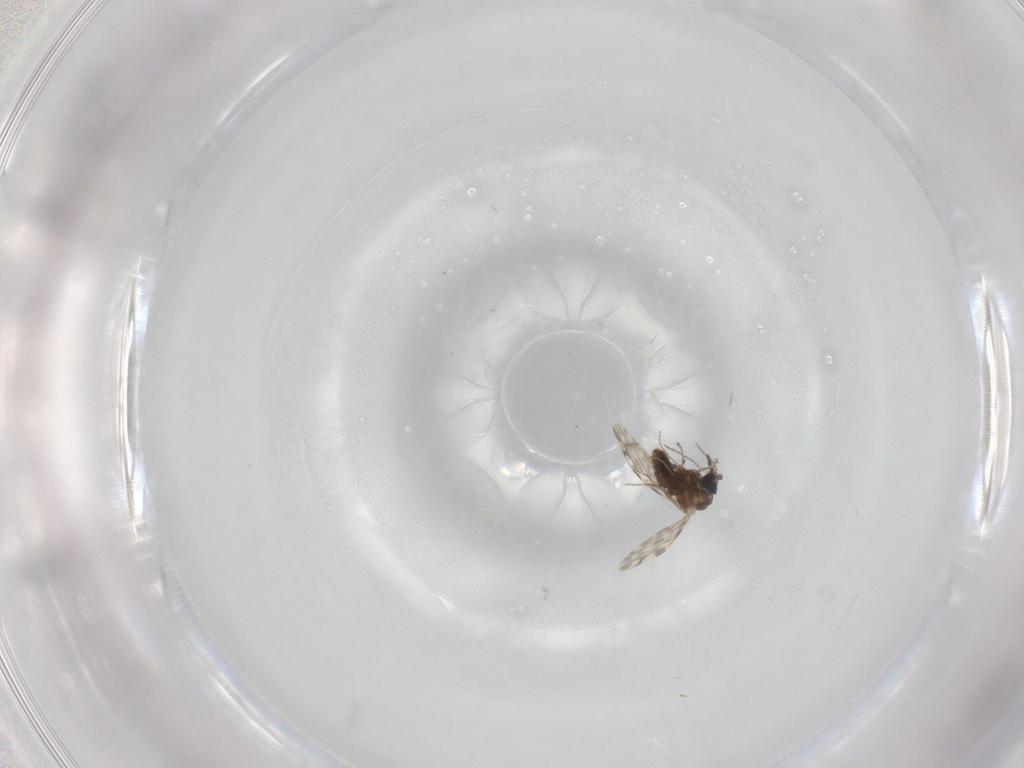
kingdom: Animalia
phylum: Arthropoda
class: Insecta
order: Diptera
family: Ceratopogonidae
